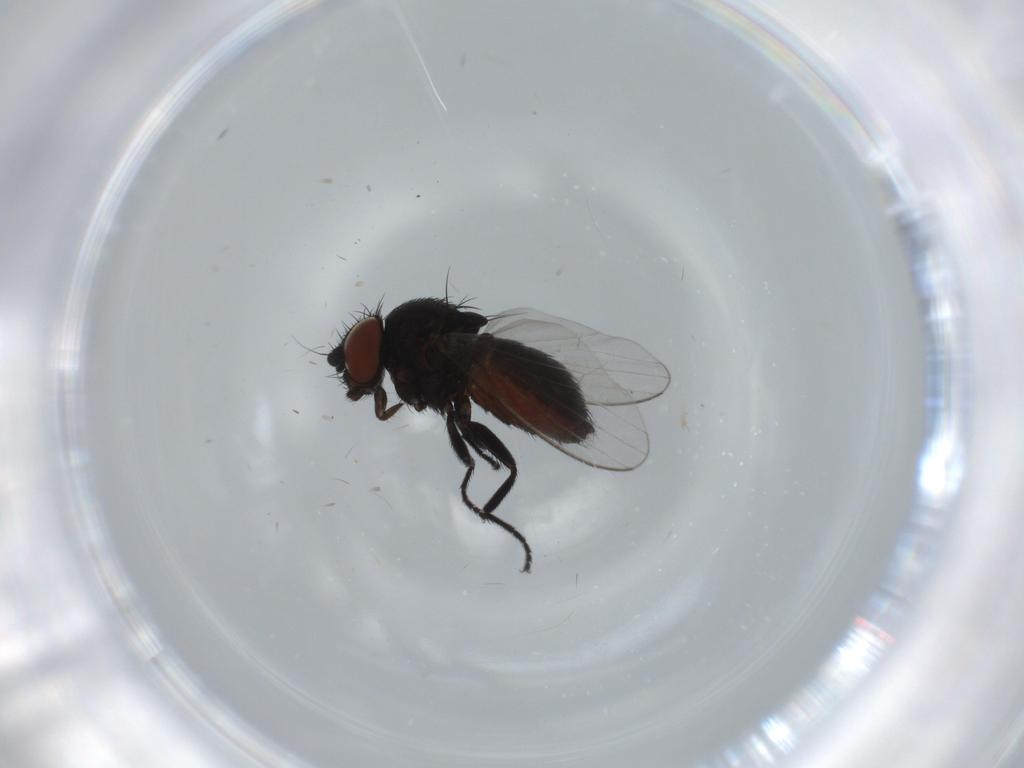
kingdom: Animalia
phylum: Arthropoda
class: Insecta
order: Diptera
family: Milichiidae
